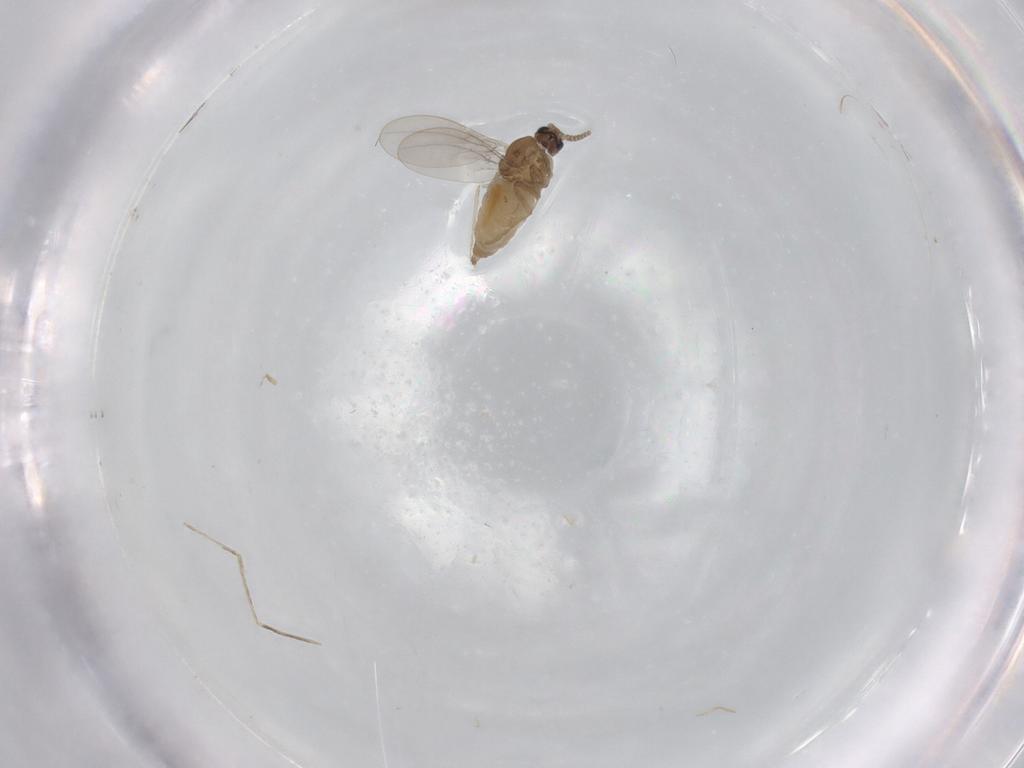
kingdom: Animalia
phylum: Arthropoda
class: Insecta
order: Diptera
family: Cecidomyiidae
